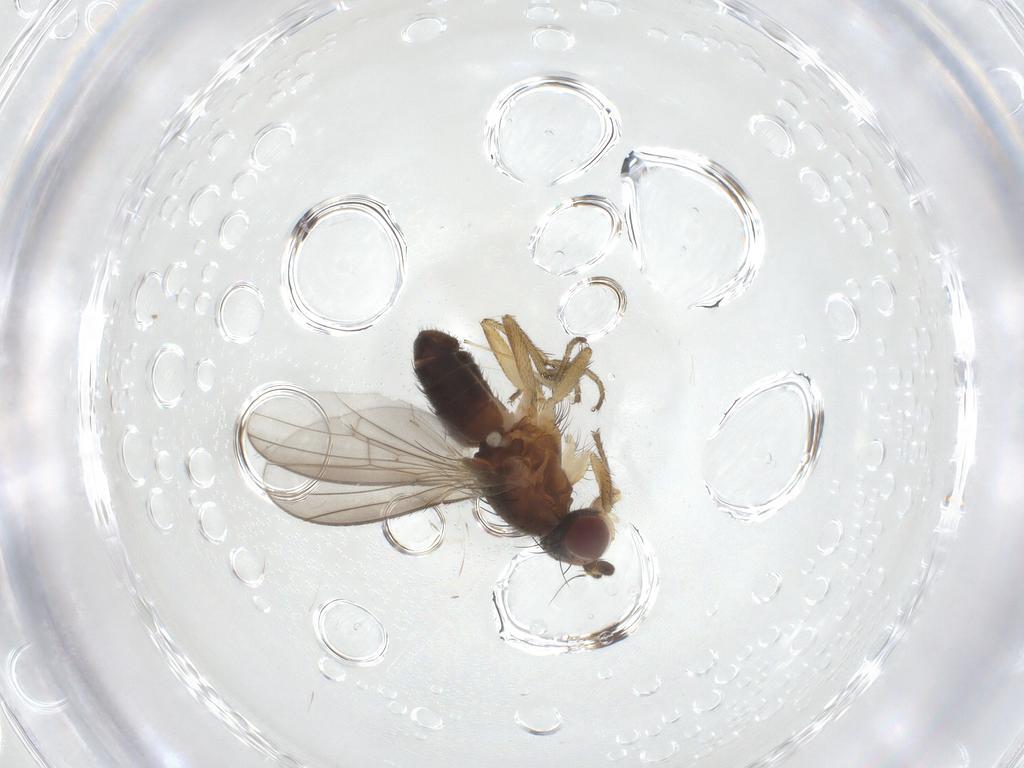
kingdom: Animalia
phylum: Arthropoda
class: Insecta
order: Diptera
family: Heleomyzidae
